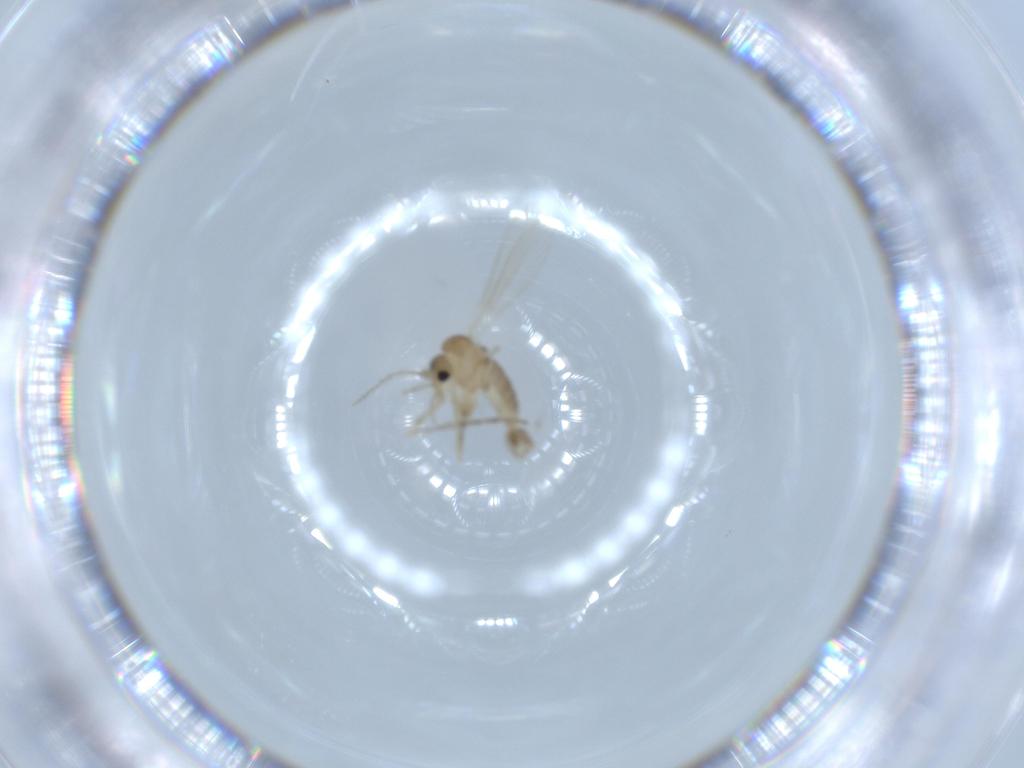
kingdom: Animalia
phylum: Arthropoda
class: Insecta
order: Diptera
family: Psychodidae
